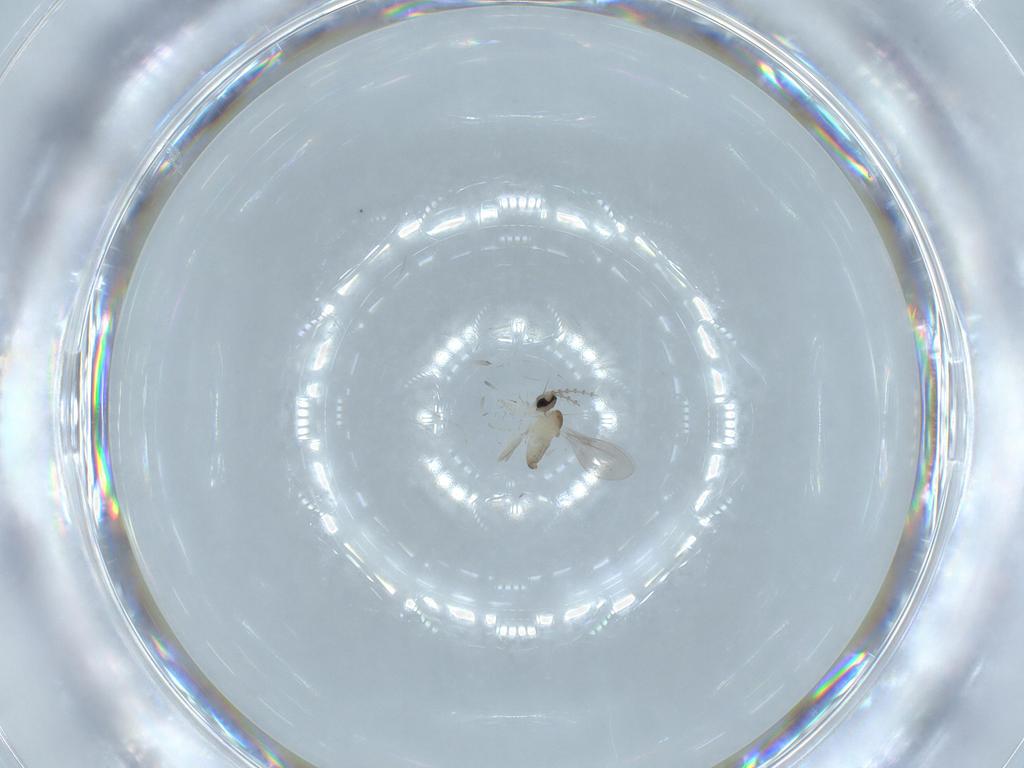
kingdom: Animalia
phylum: Arthropoda
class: Insecta
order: Diptera
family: Cecidomyiidae
